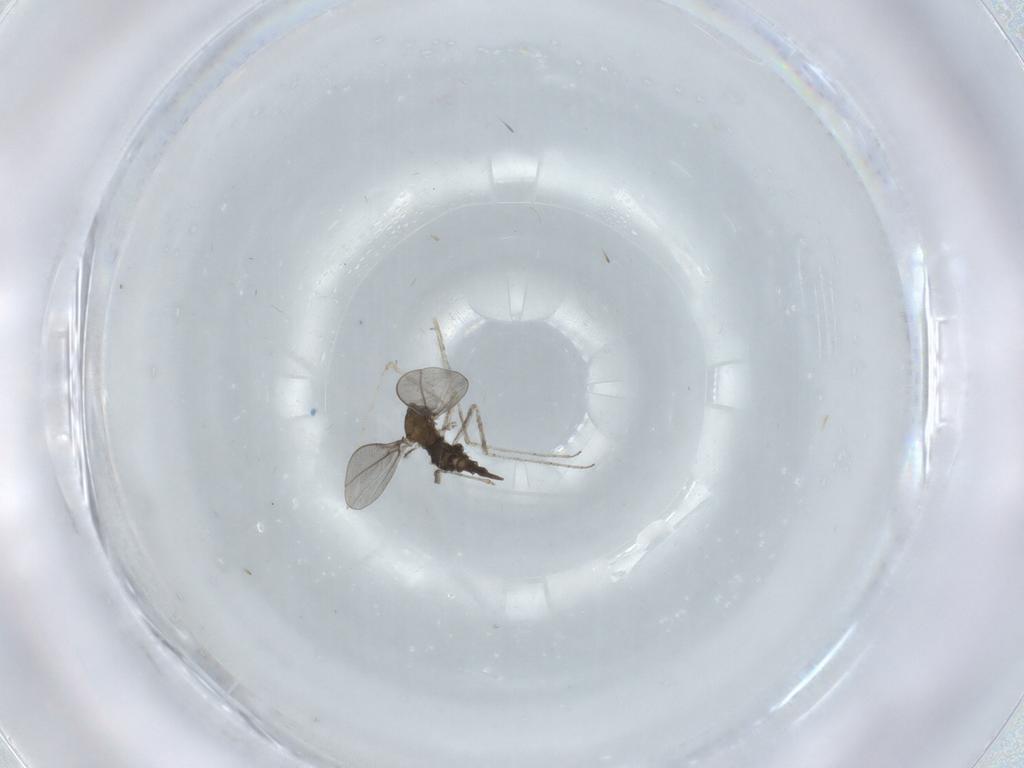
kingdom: Animalia
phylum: Arthropoda
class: Insecta
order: Diptera
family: Cecidomyiidae
